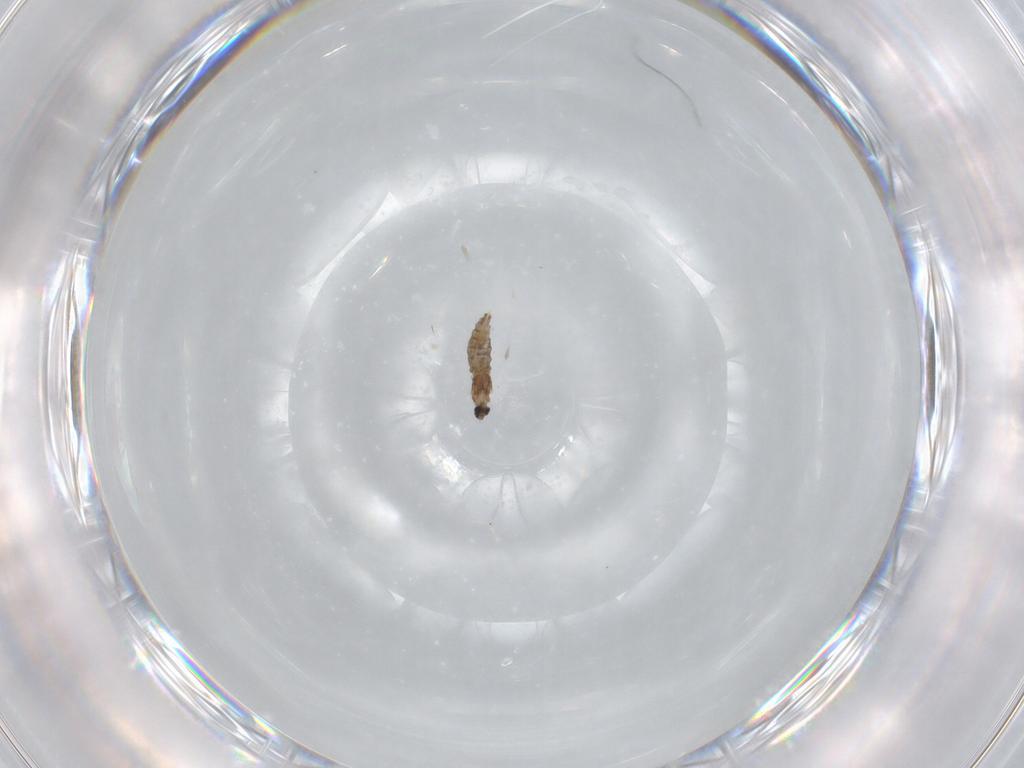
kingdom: Animalia
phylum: Arthropoda
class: Insecta
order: Diptera
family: Cecidomyiidae
